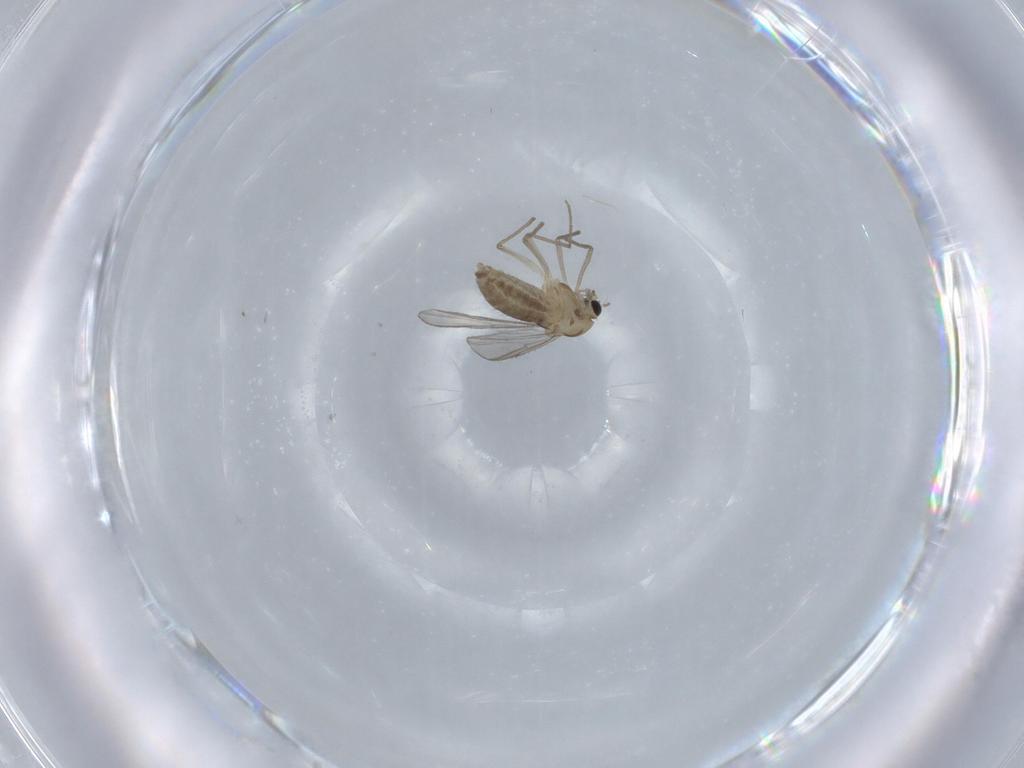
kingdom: Animalia
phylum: Arthropoda
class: Insecta
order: Diptera
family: Chironomidae
